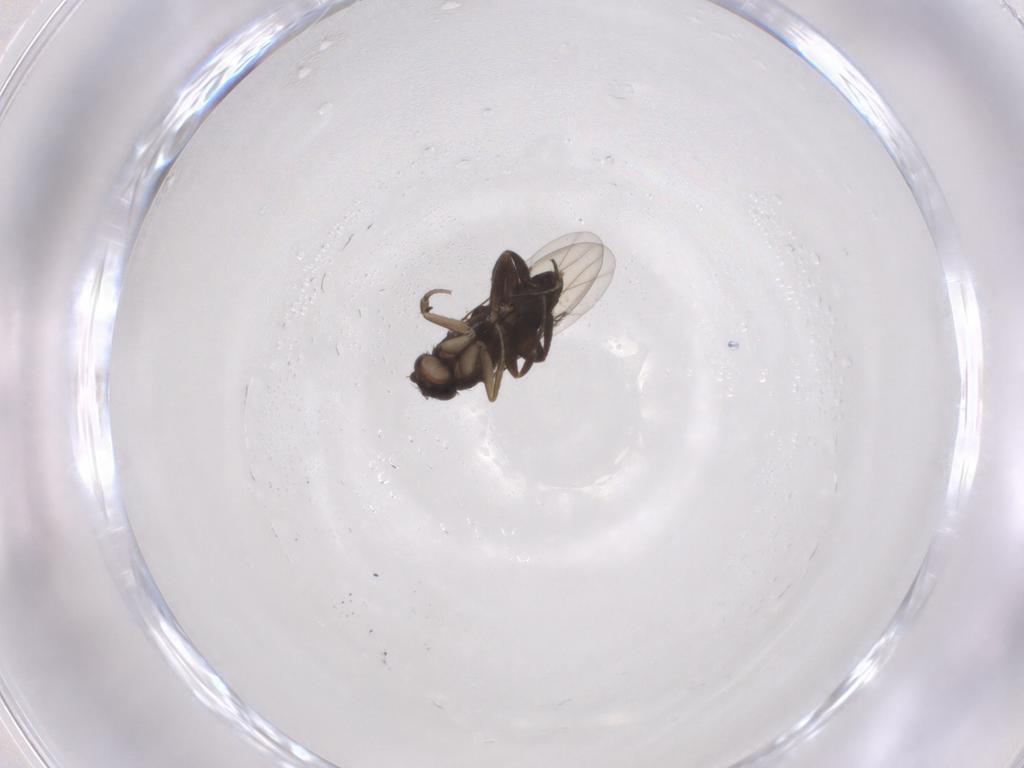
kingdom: Animalia
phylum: Arthropoda
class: Insecta
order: Diptera
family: Phoridae
